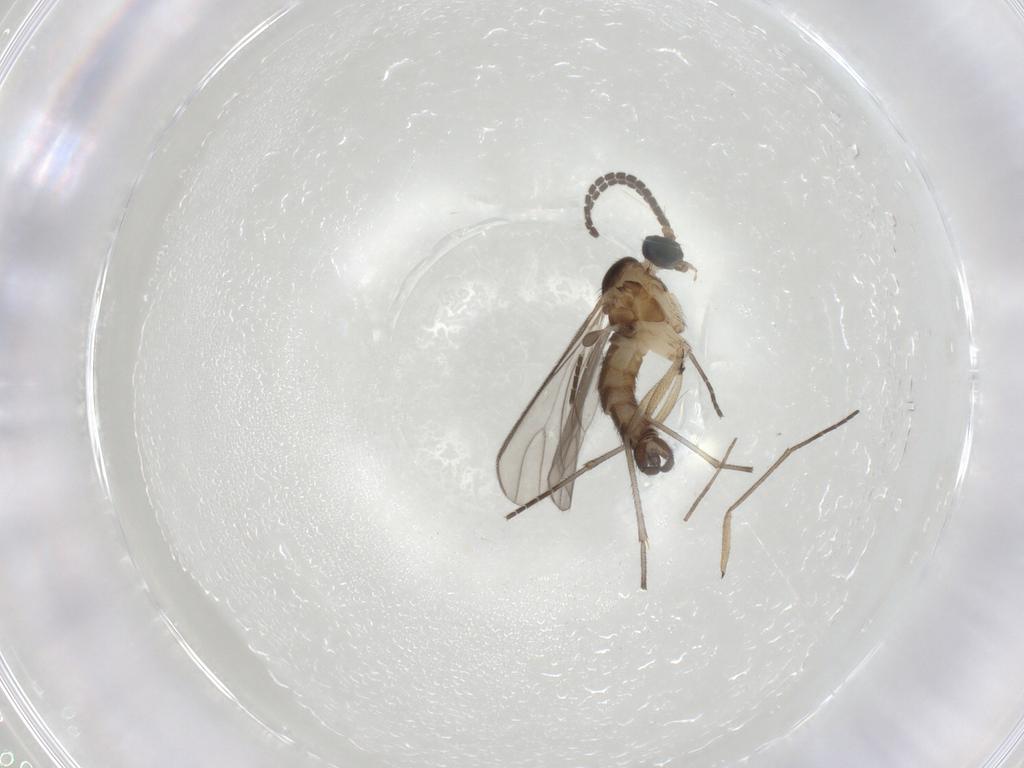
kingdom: Animalia
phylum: Arthropoda
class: Insecta
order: Diptera
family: Sciaridae
